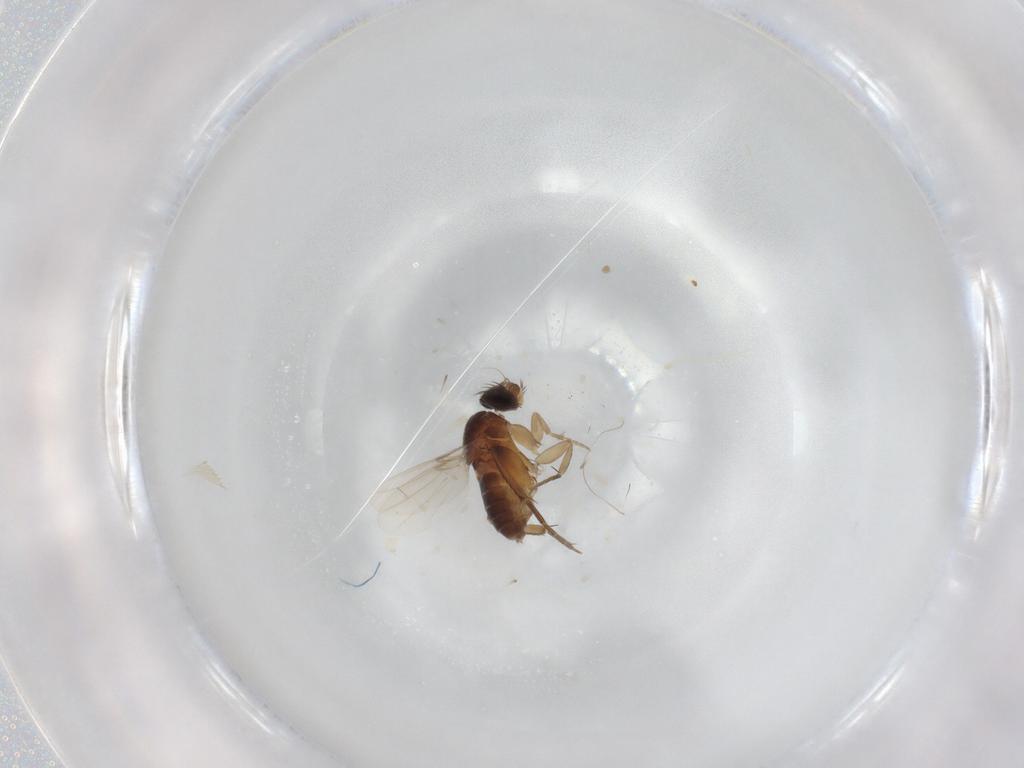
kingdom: Animalia
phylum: Arthropoda
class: Insecta
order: Diptera
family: Phoridae
